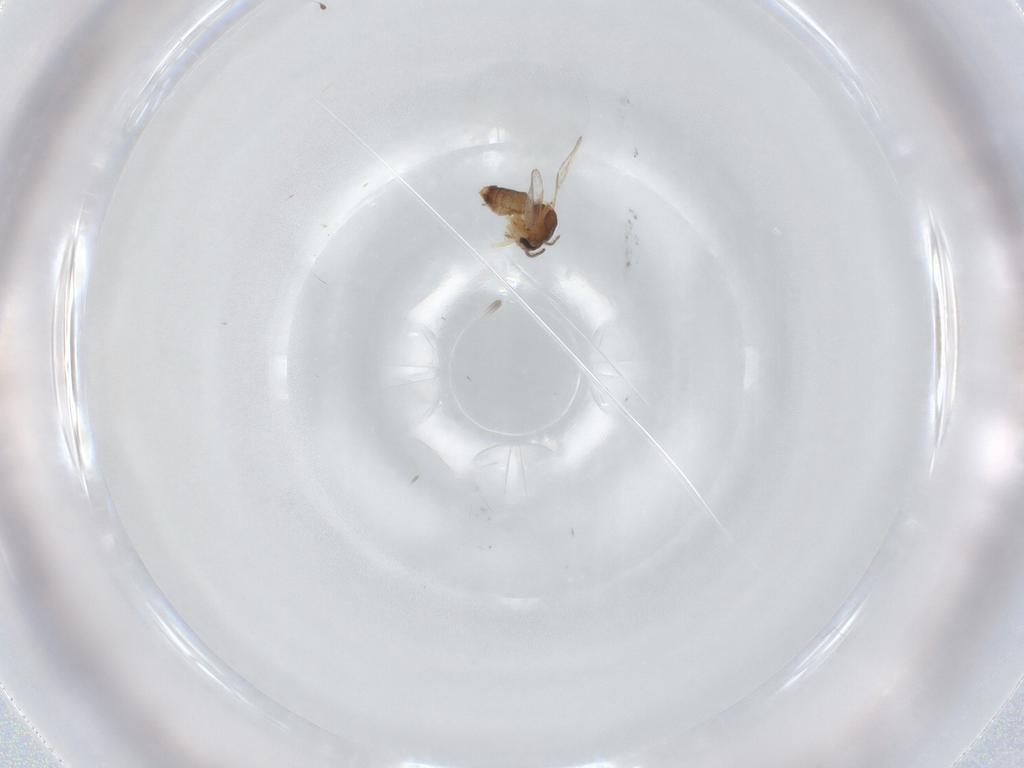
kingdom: Animalia
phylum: Arthropoda
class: Insecta
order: Diptera
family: Ceratopogonidae
